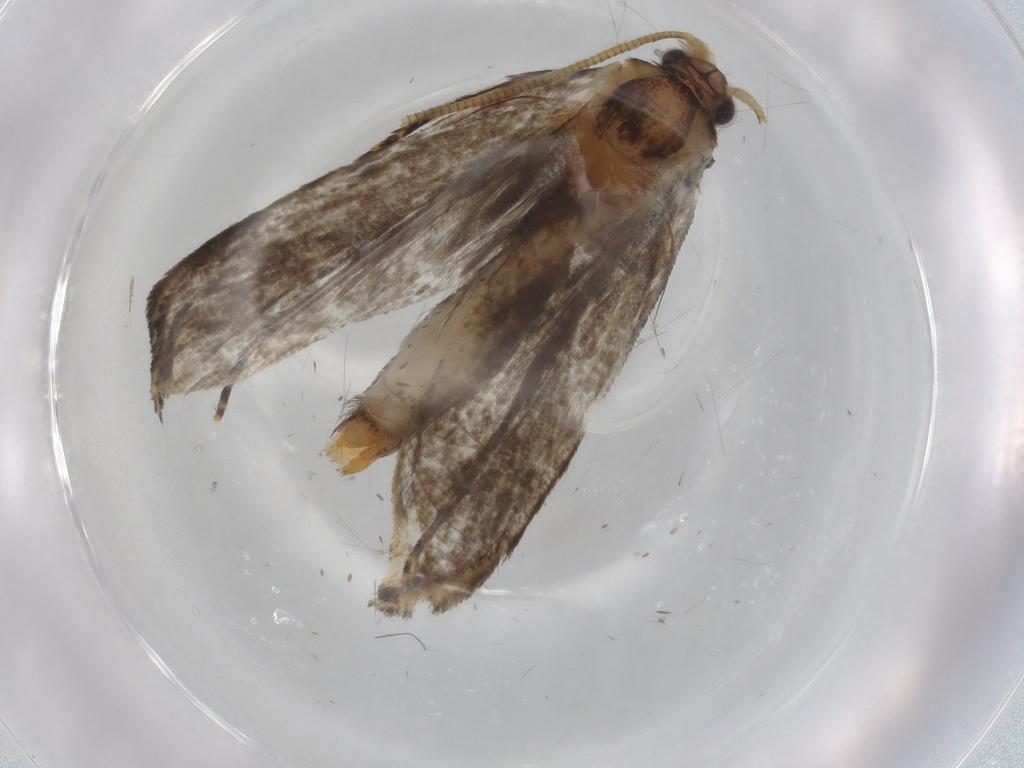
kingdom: Animalia
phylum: Arthropoda
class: Insecta
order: Lepidoptera
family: Tineidae
